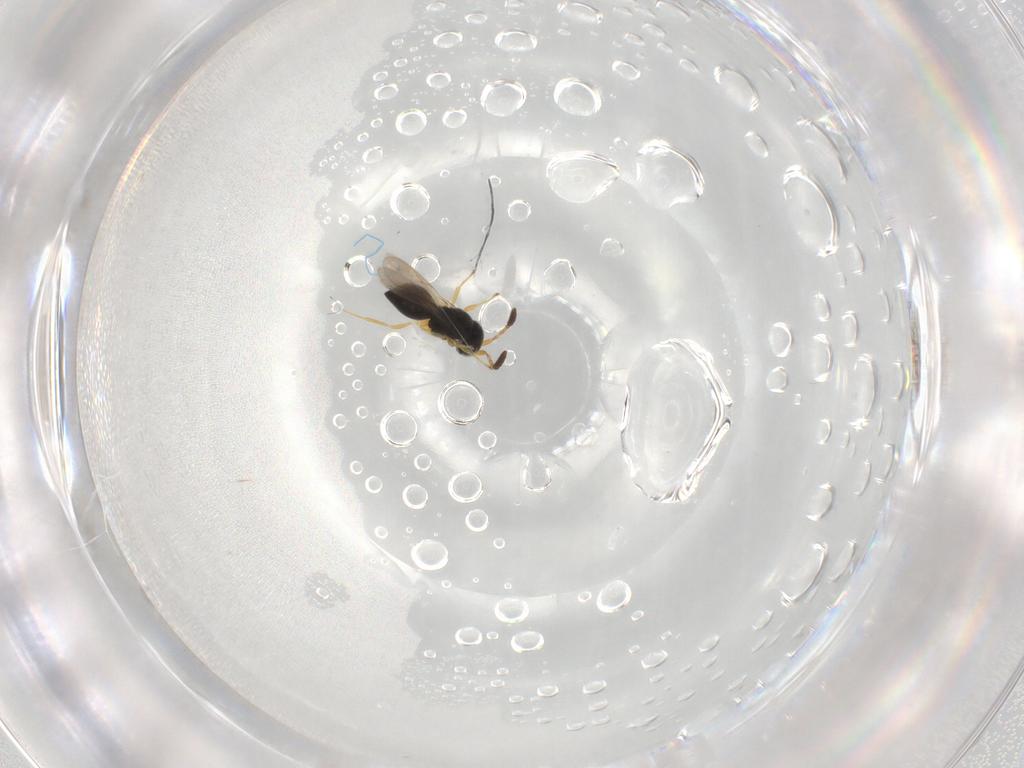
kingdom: Animalia
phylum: Arthropoda
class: Insecta
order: Hymenoptera
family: Scelionidae
